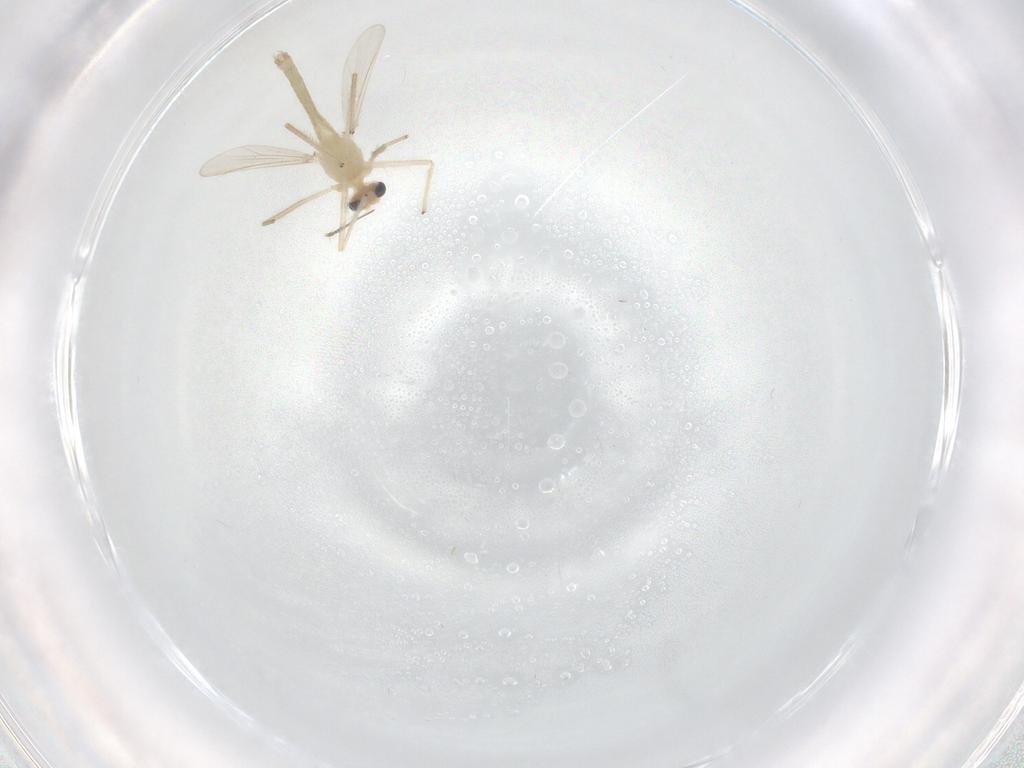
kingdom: Animalia
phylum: Arthropoda
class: Insecta
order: Diptera
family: Chironomidae
